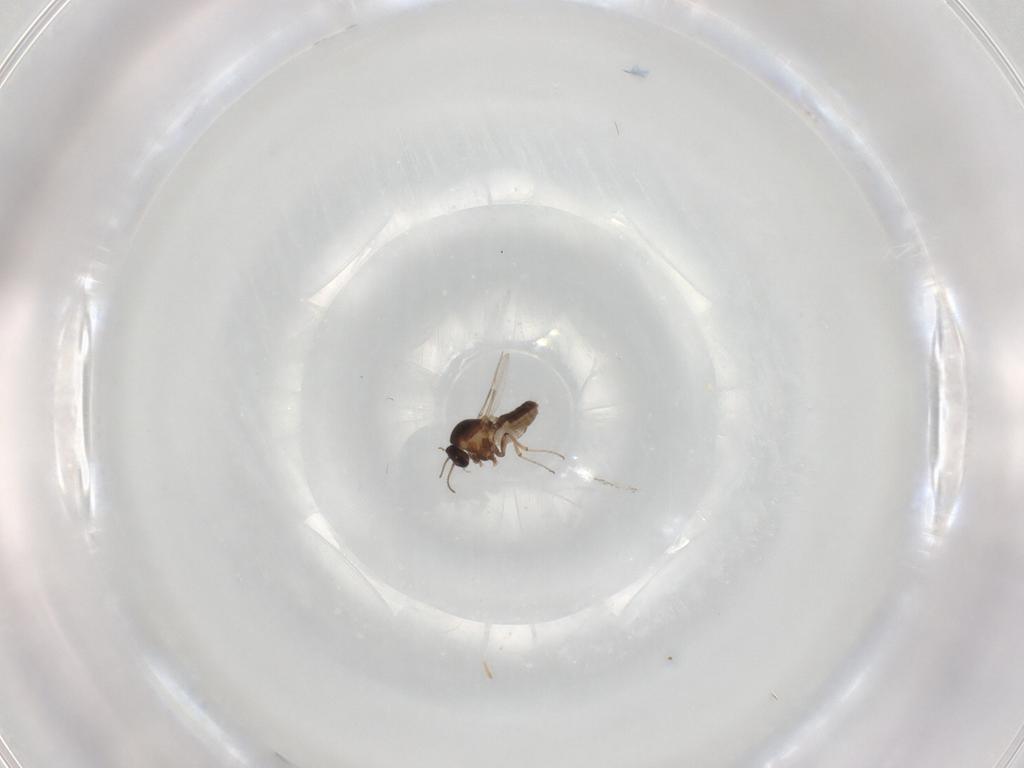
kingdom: Animalia
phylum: Arthropoda
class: Insecta
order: Diptera
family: Ceratopogonidae
